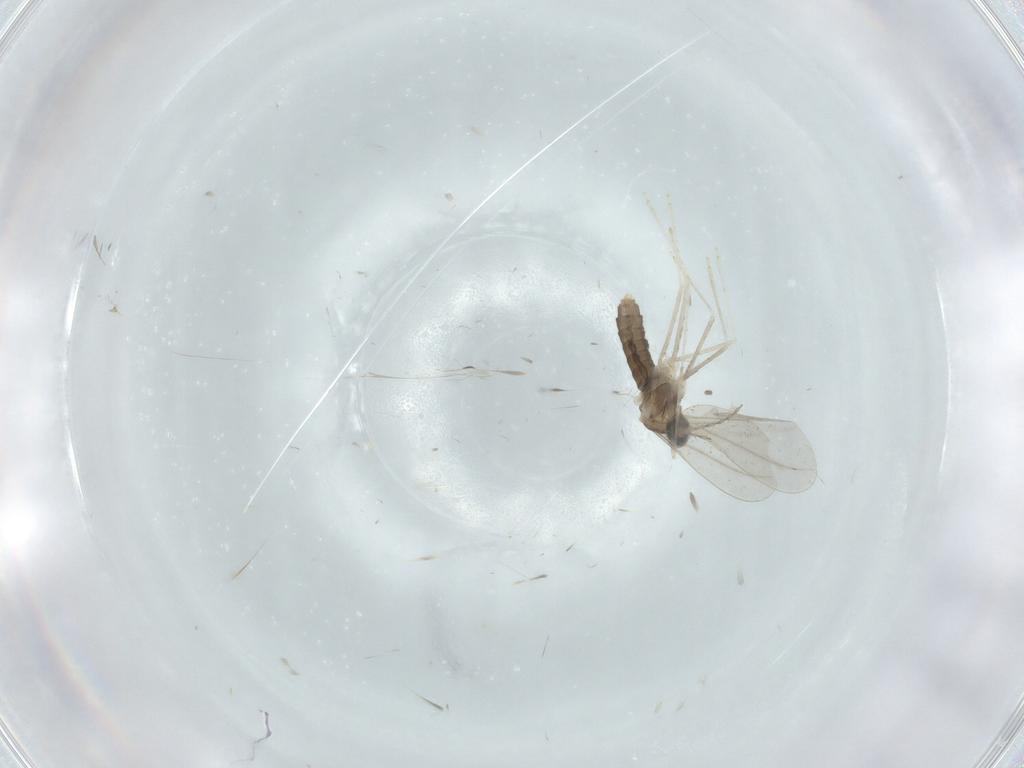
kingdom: Animalia
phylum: Arthropoda
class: Insecta
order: Diptera
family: Cecidomyiidae
